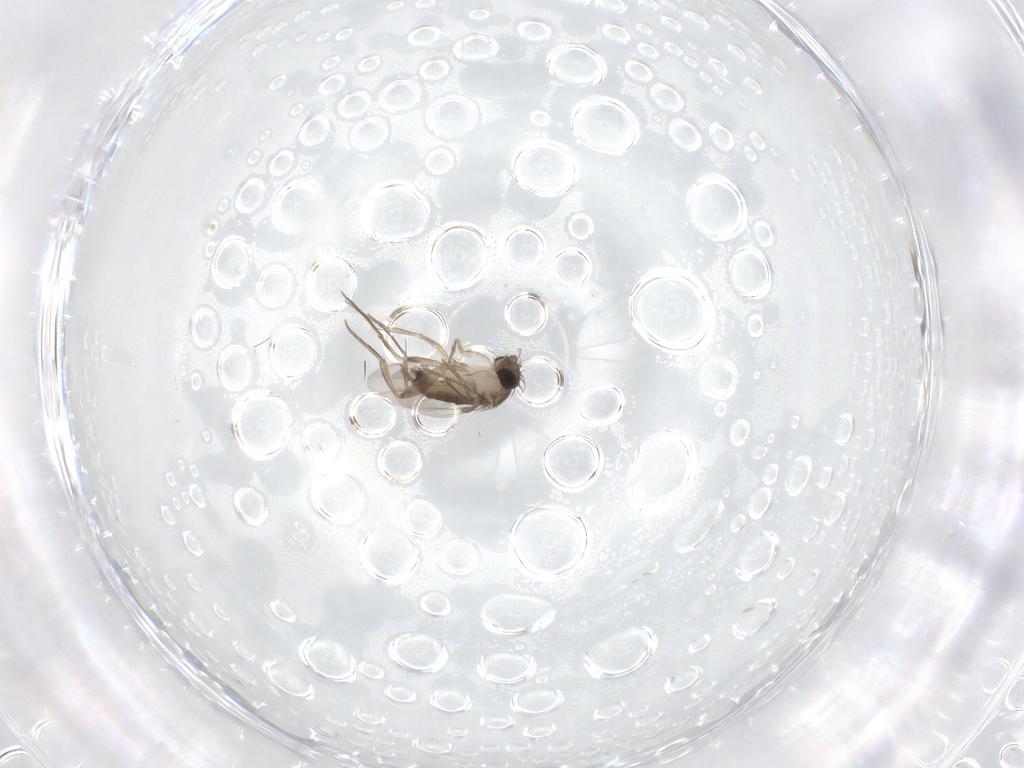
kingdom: Animalia
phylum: Arthropoda
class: Insecta
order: Diptera
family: Phoridae
